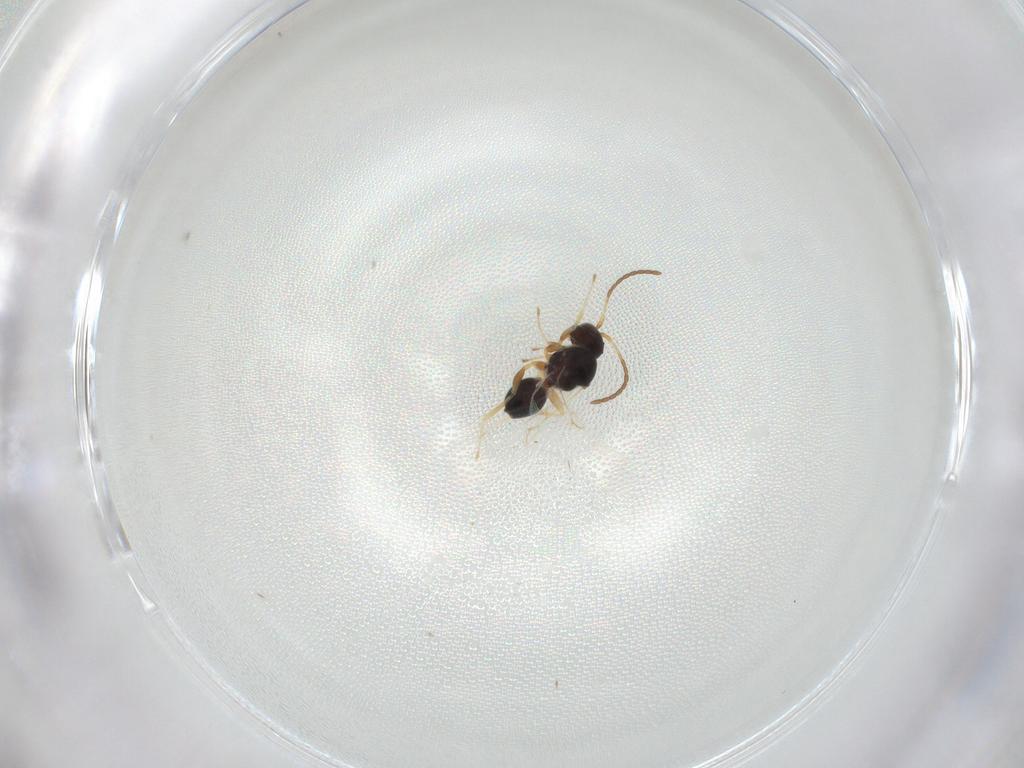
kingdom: Animalia
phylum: Arthropoda
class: Insecta
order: Hymenoptera
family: Figitidae
